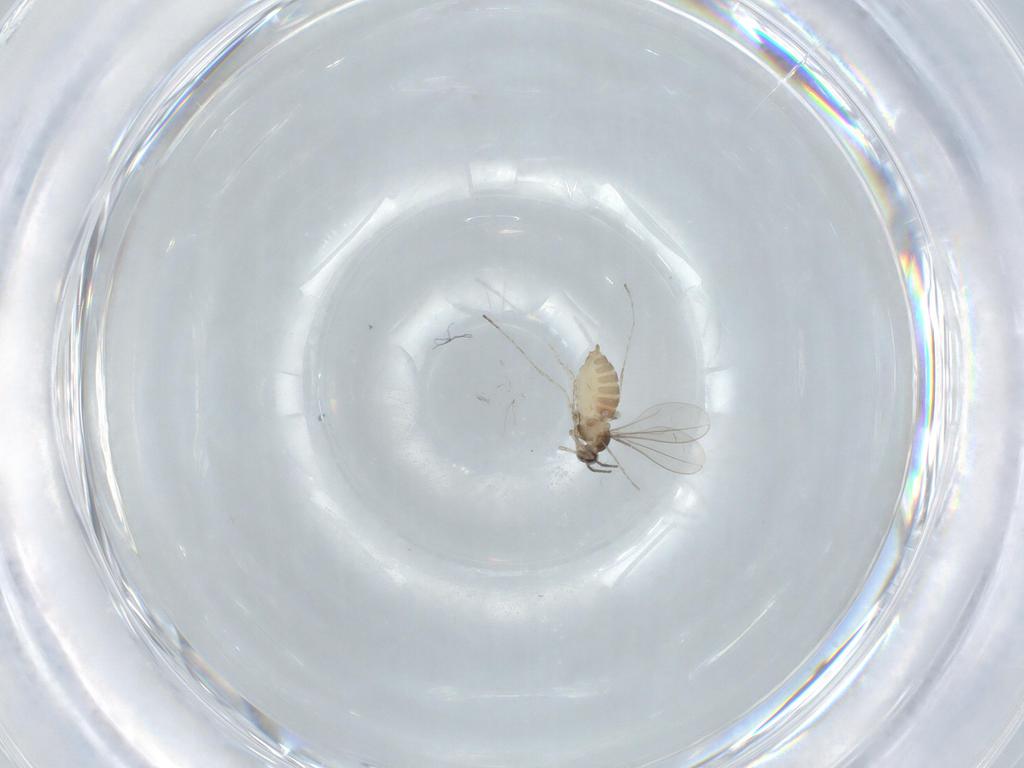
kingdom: Animalia
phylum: Arthropoda
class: Insecta
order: Diptera
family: Cecidomyiidae
